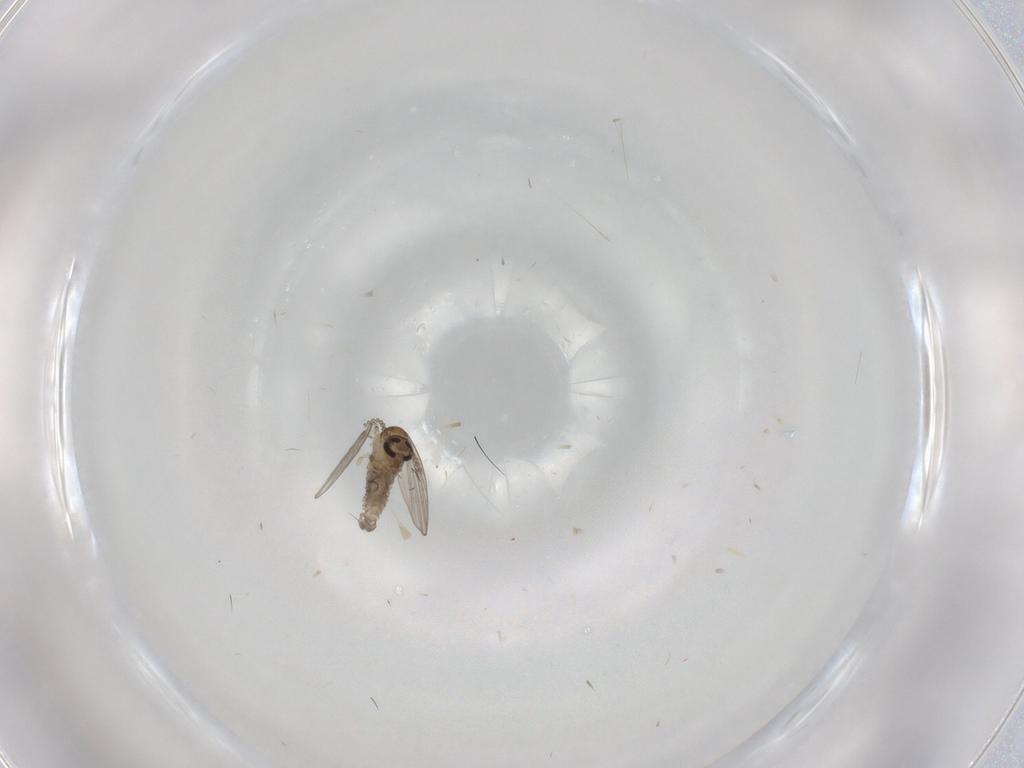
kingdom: Animalia
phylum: Arthropoda
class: Insecta
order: Diptera
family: Psychodidae
